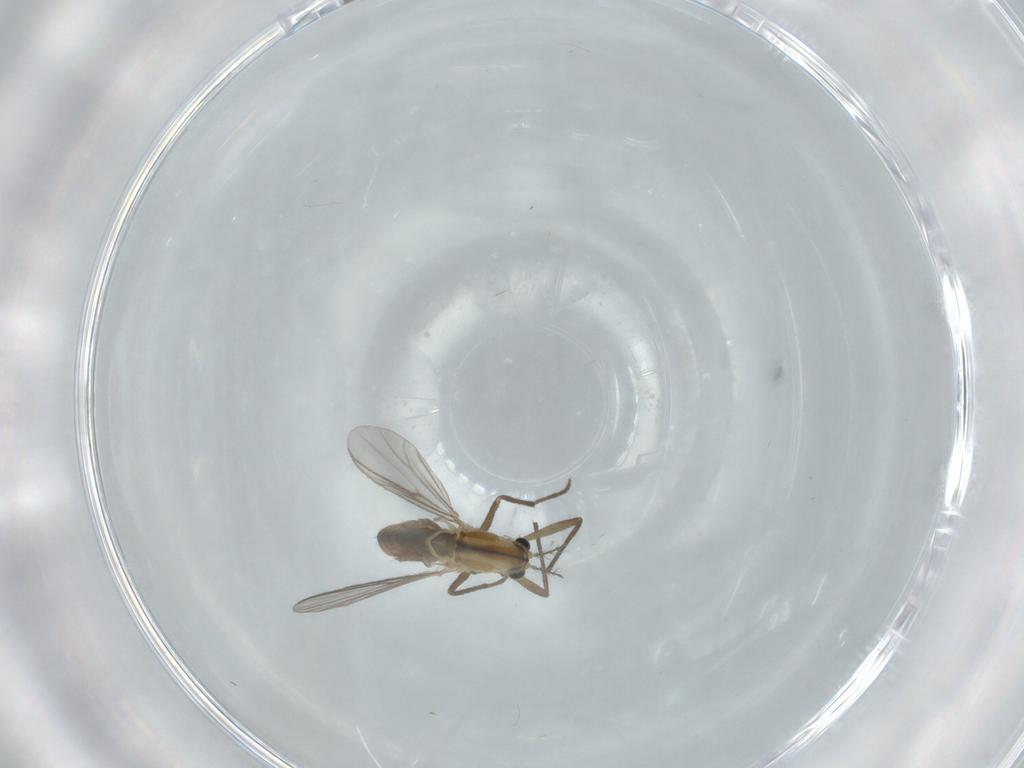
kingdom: Animalia
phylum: Arthropoda
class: Insecta
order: Diptera
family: Chironomidae
